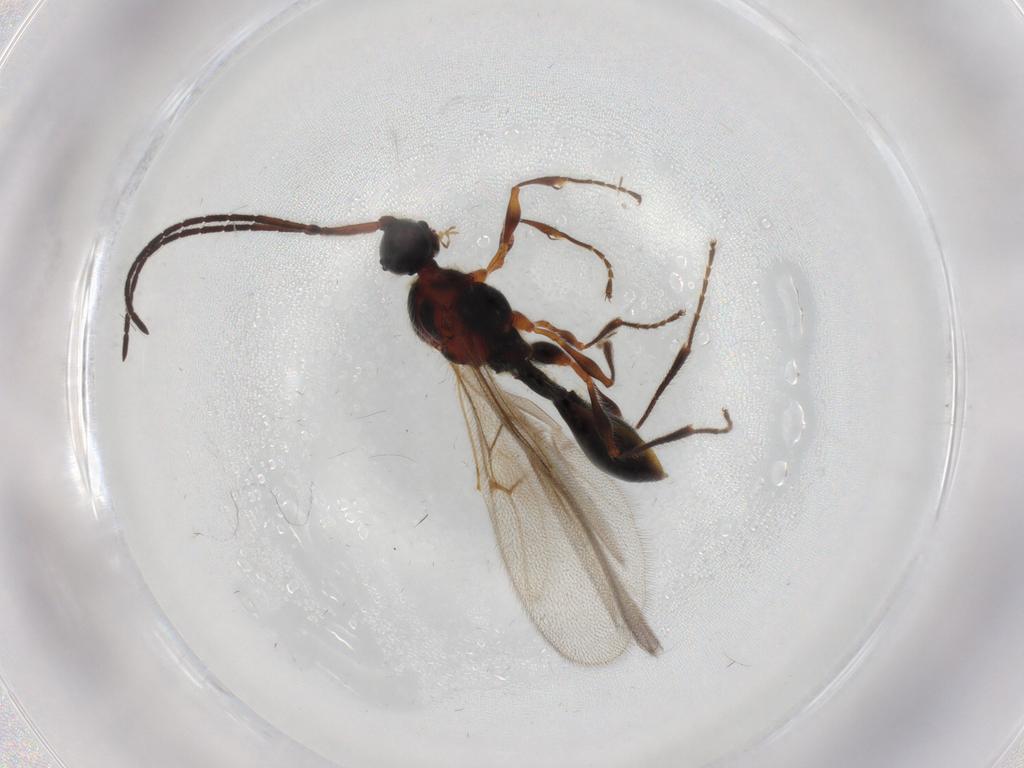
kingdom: Animalia
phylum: Arthropoda
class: Insecta
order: Hymenoptera
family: Diapriidae
